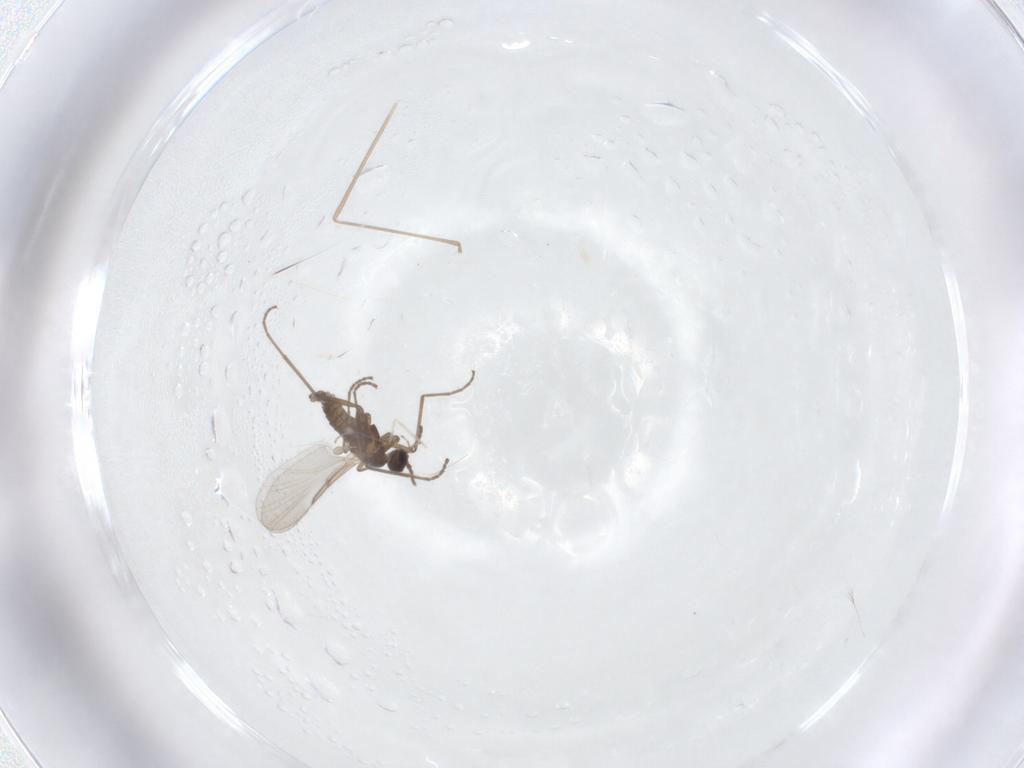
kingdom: Animalia
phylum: Arthropoda
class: Insecta
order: Diptera
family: Cecidomyiidae
